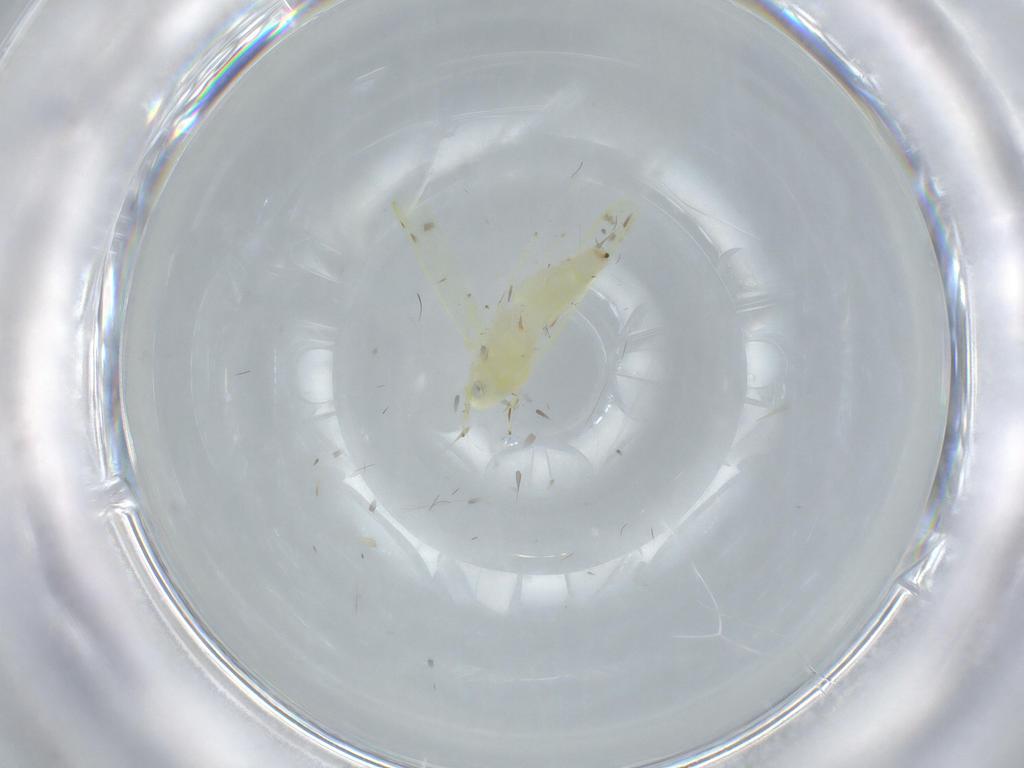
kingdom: Animalia
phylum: Arthropoda
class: Insecta
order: Hemiptera
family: Cicadellidae
